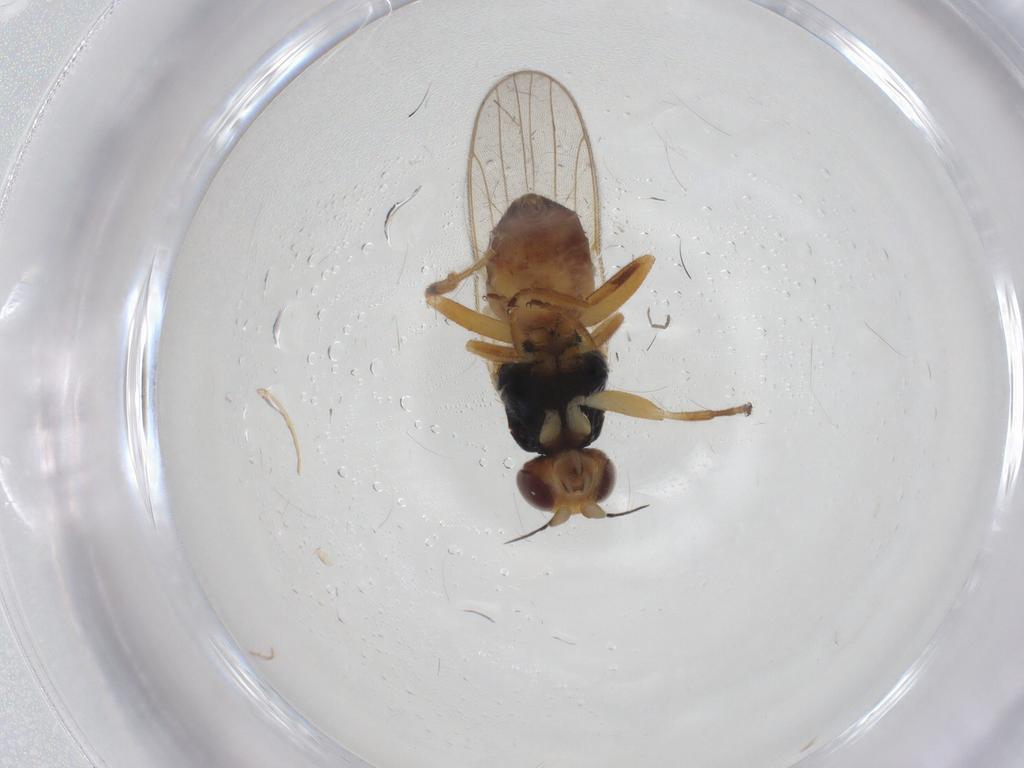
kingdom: Animalia
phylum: Arthropoda
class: Insecta
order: Diptera
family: Chloropidae
